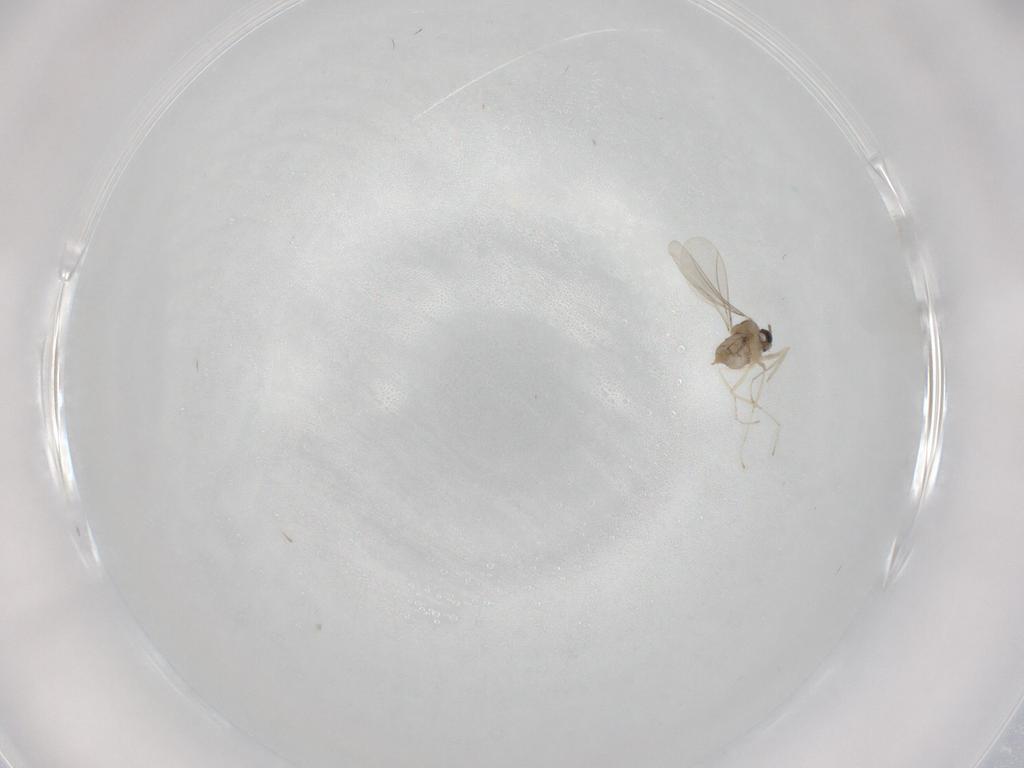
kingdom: Animalia
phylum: Arthropoda
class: Insecta
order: Diptera
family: Cecidomyiidae
